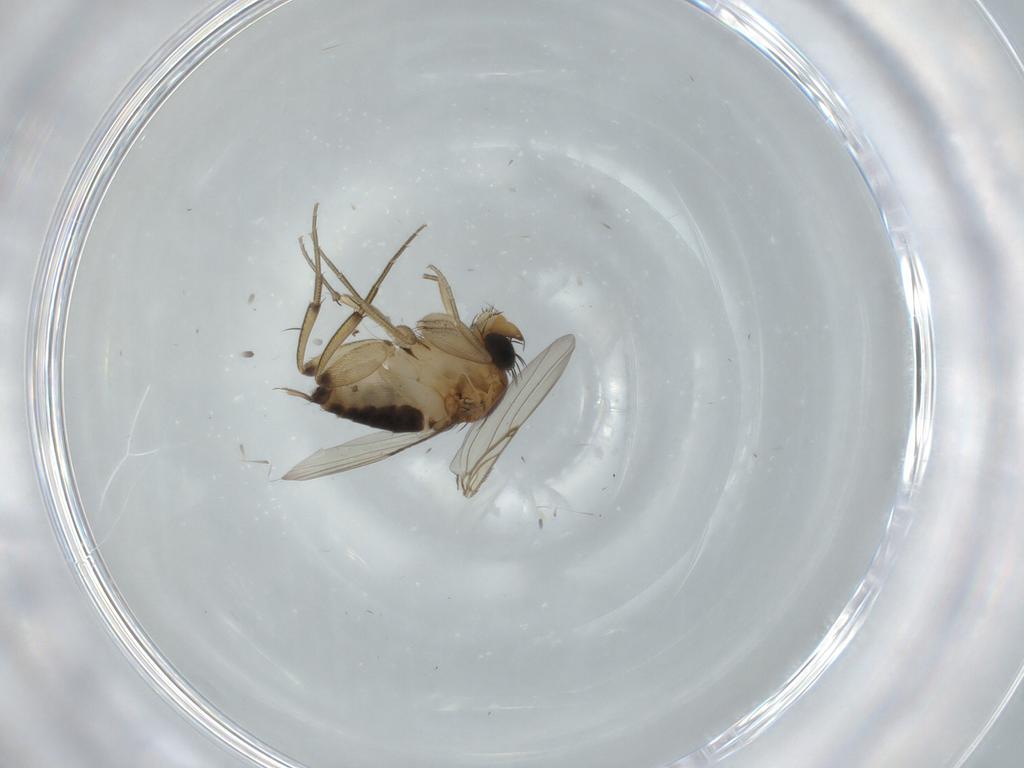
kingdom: Animalia
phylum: Arthropoda
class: Insecta
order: Diptera
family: Phoridae
